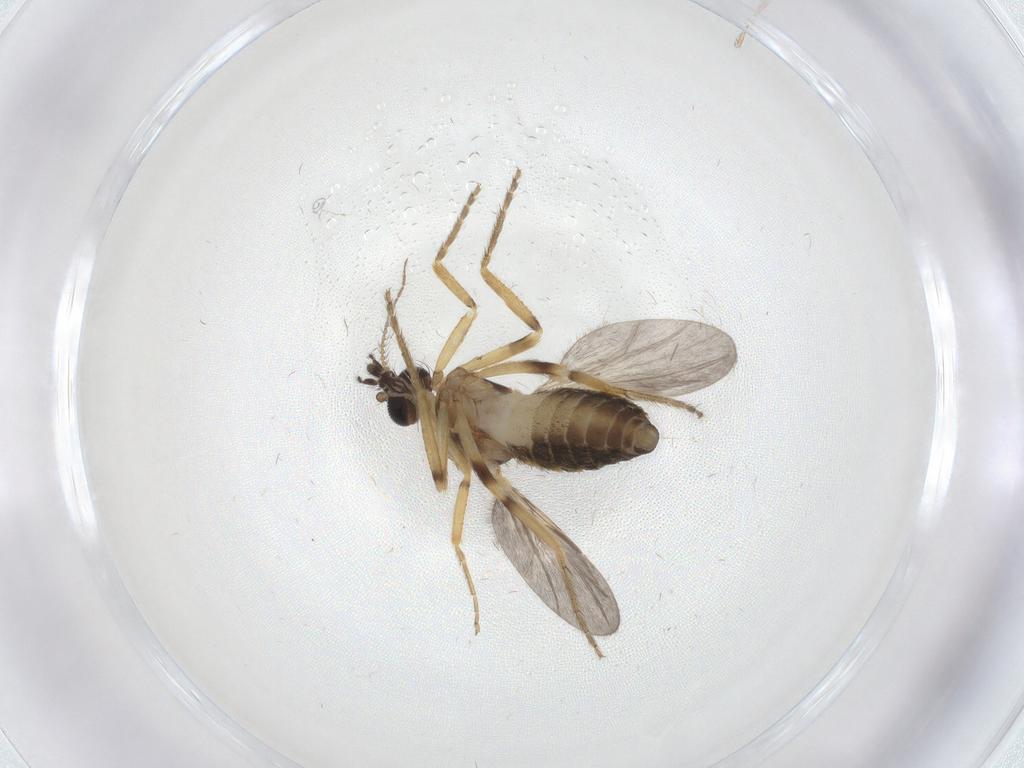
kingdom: Animalia
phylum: Arthropoda
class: Insecta
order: Diptera
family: Ceratopogonidae
